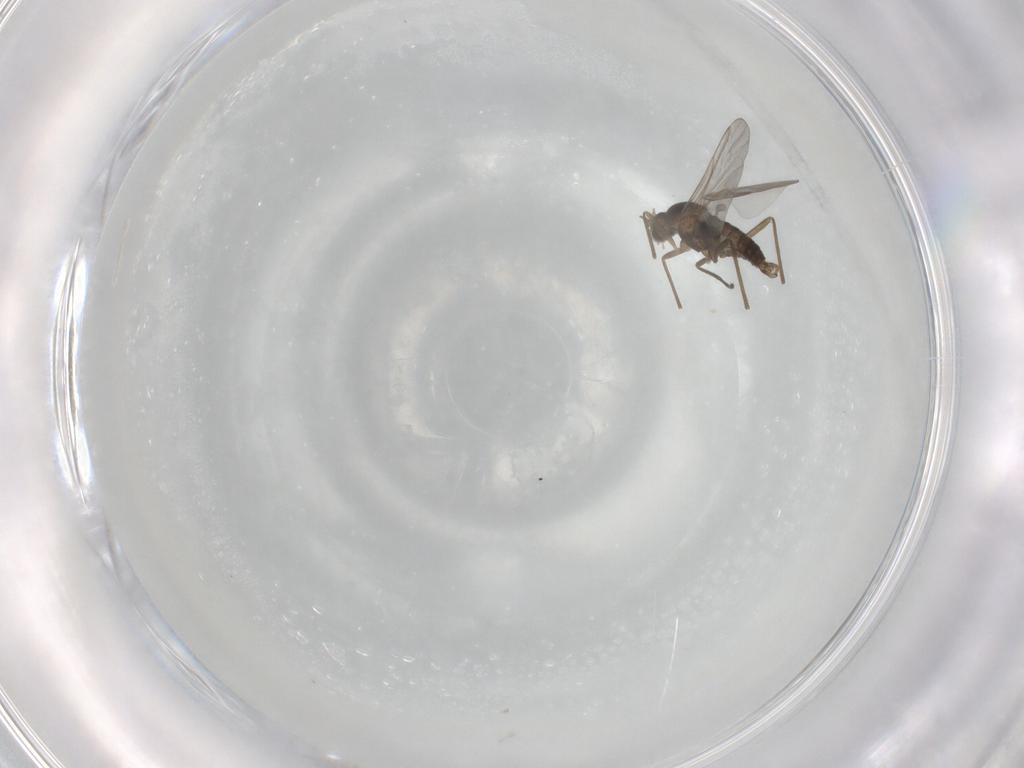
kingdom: Animalia
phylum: Arthropoda
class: Insecta
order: Diptera
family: Cecidomyiidae
